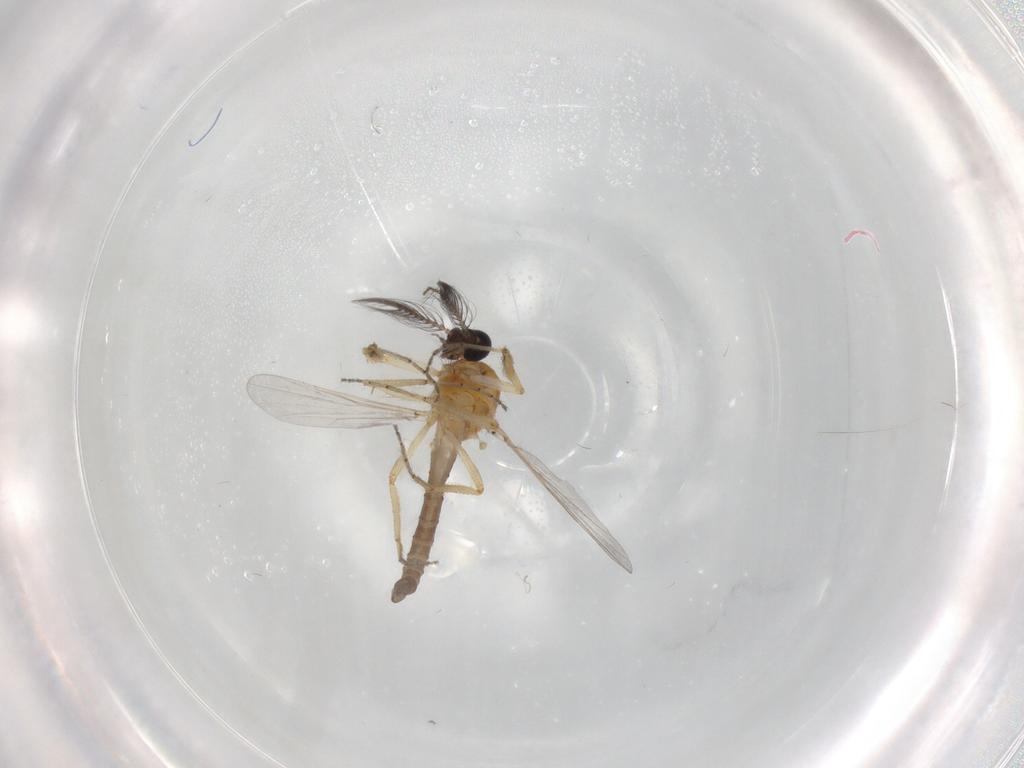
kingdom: Animalia
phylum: Arthropoda
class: Insecta
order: Diptera
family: Ceratopogonidae
